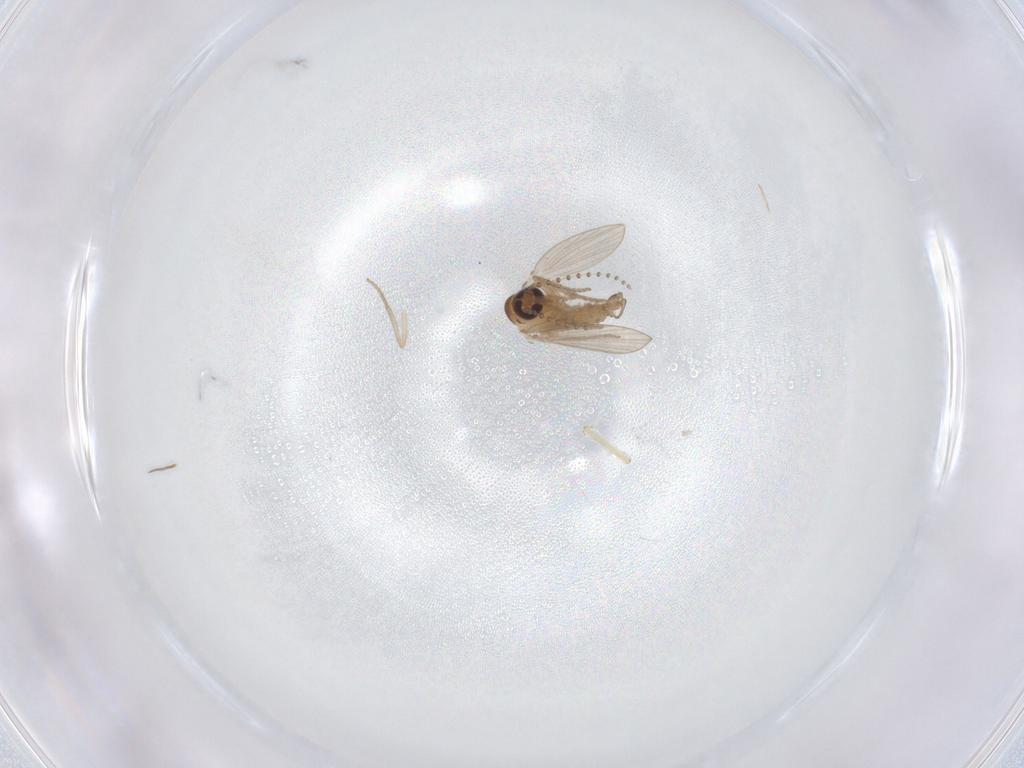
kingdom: Animalia
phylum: Arthropoda
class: Insecta
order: Diptera
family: Psychodidae
